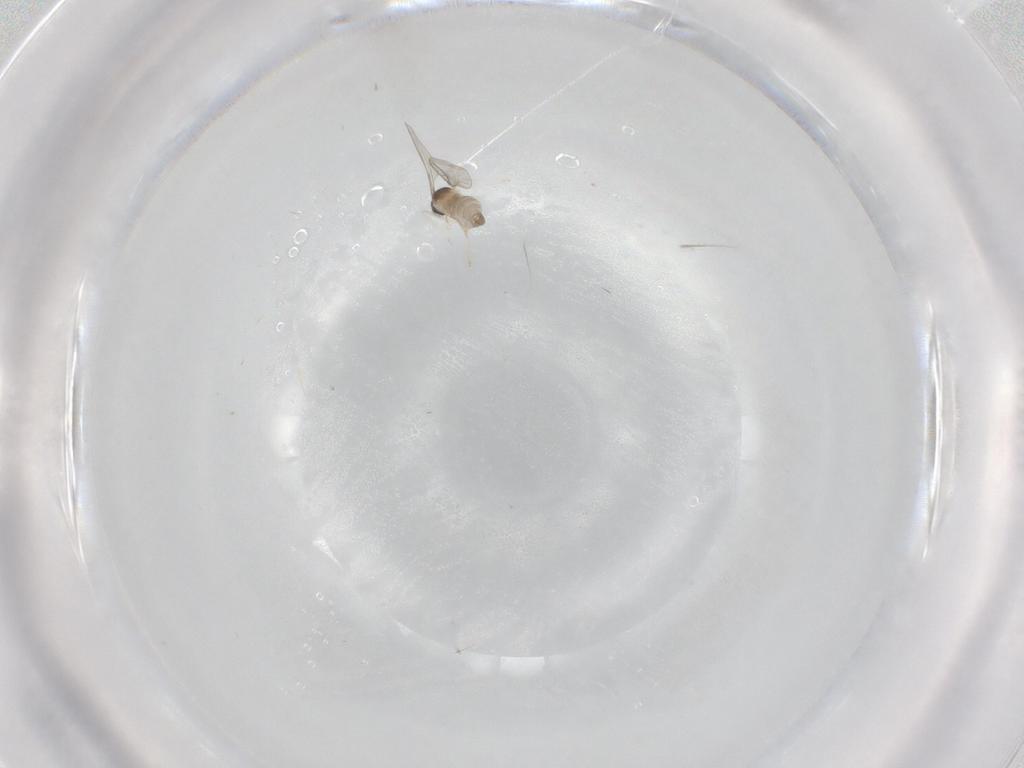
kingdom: Animalia
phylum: Arthropoda
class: Insecta
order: Diptera
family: Cecidomyiidae
